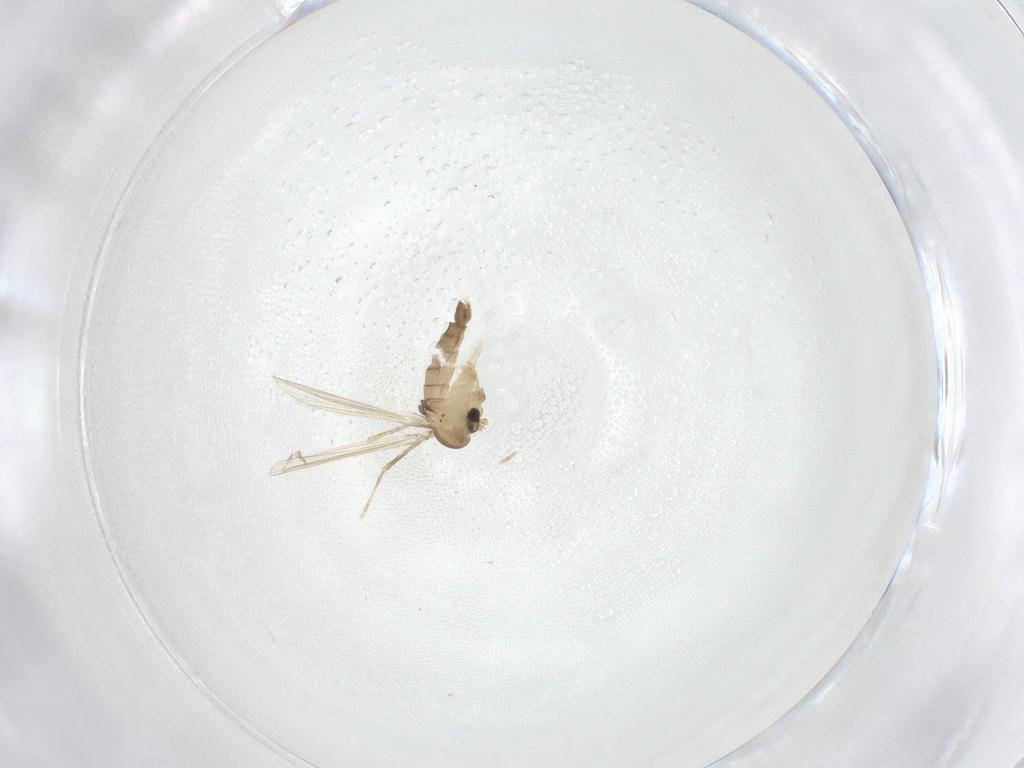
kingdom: Animalia
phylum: Arthropoda
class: Insecta
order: Diptera
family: Psychodidae
